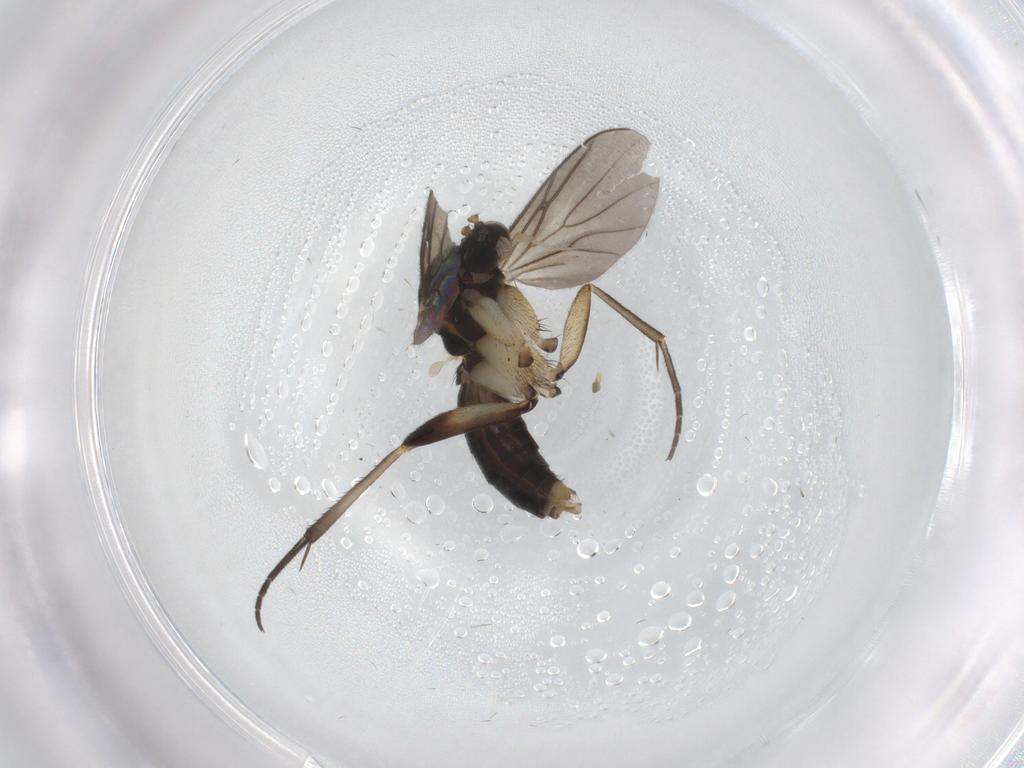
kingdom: Animalia
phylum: Arthropoda
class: Insecta
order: Diptera
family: Mycetophilidae
